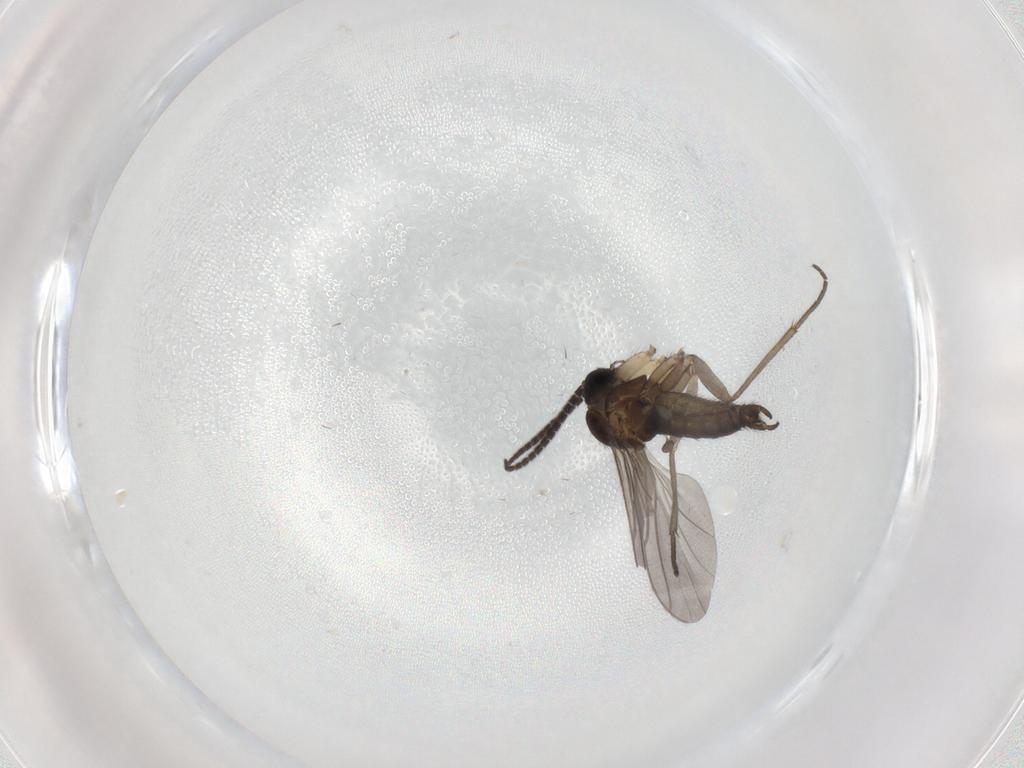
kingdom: Animalia
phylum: Arthropoda
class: Insecta
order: Diptera
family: Sciaridae
